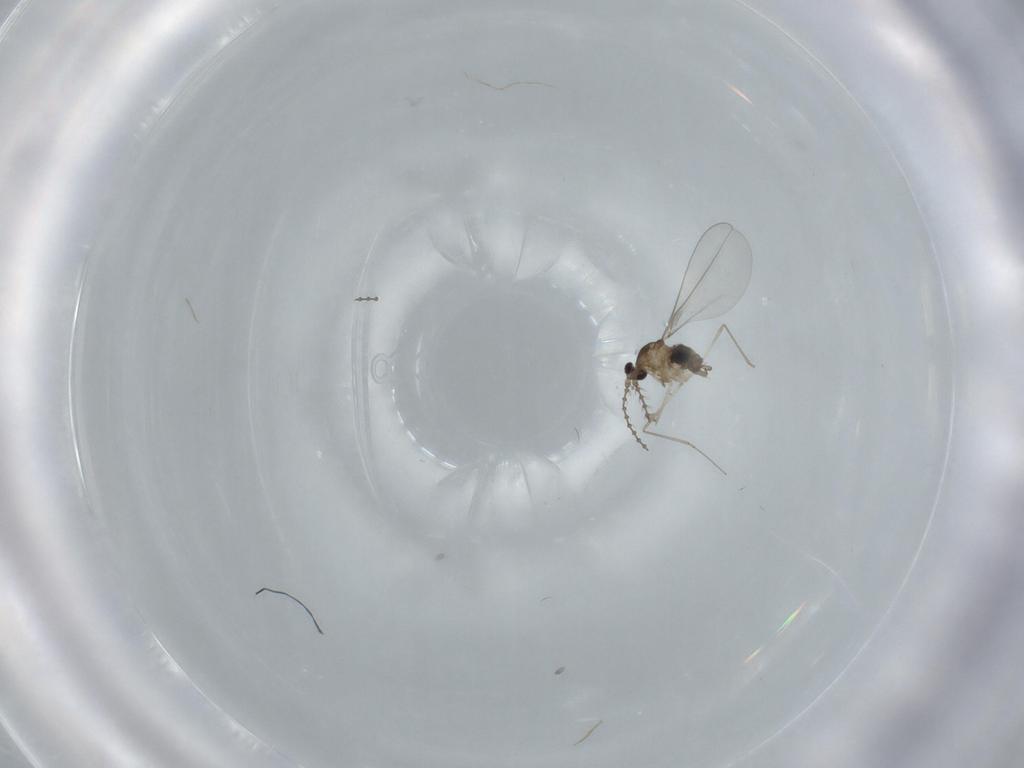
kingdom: Animalia
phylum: Arthropoda
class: Insecta
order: Diptera
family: Cecidomyiidae
